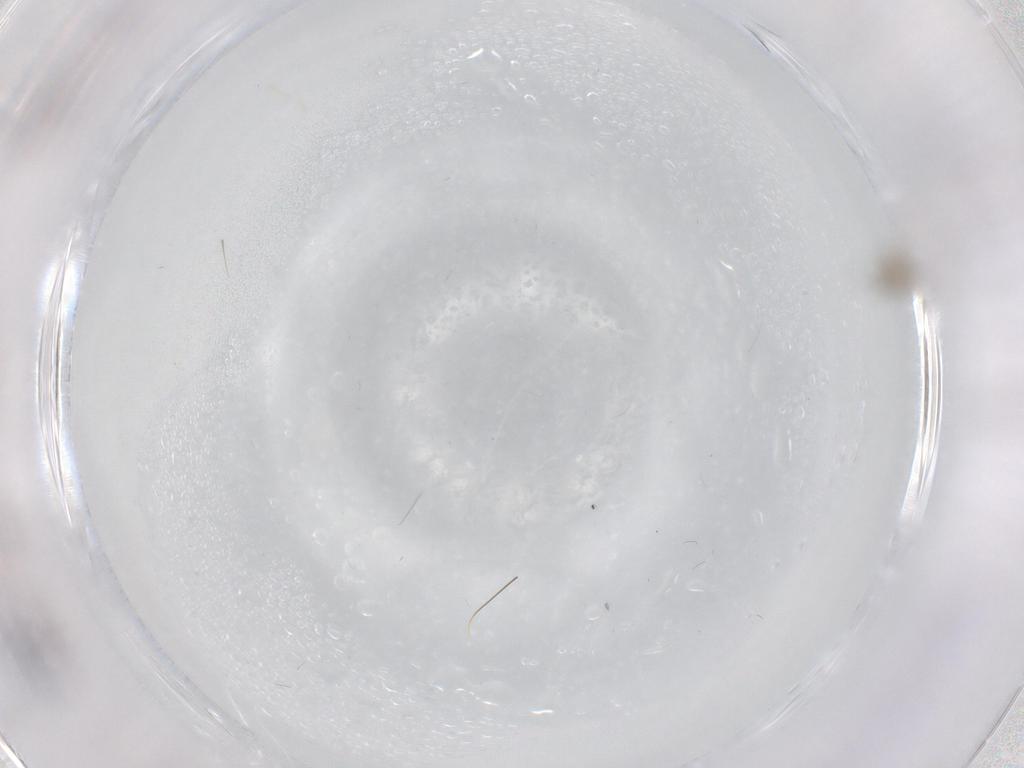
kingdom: Animalia
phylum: Arthropoda
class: Insecta
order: Diptera
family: Cecidomyiidae
